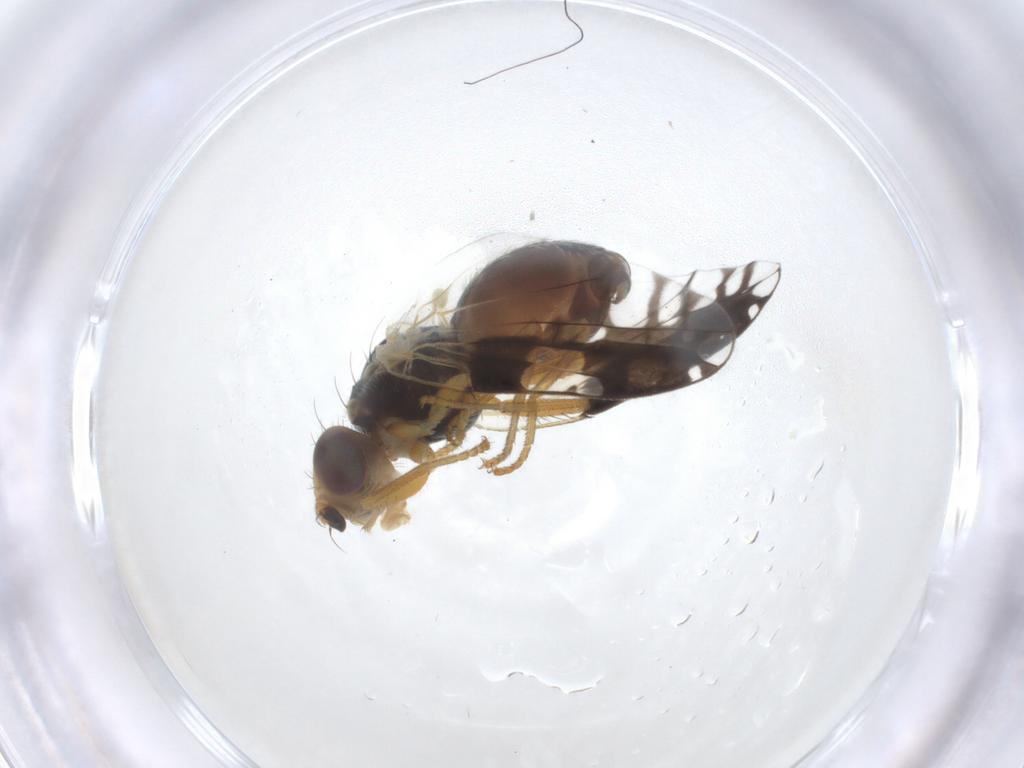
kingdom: Animalia
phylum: Arthropoda
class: Insecta
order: Diptera
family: Tephritidae
